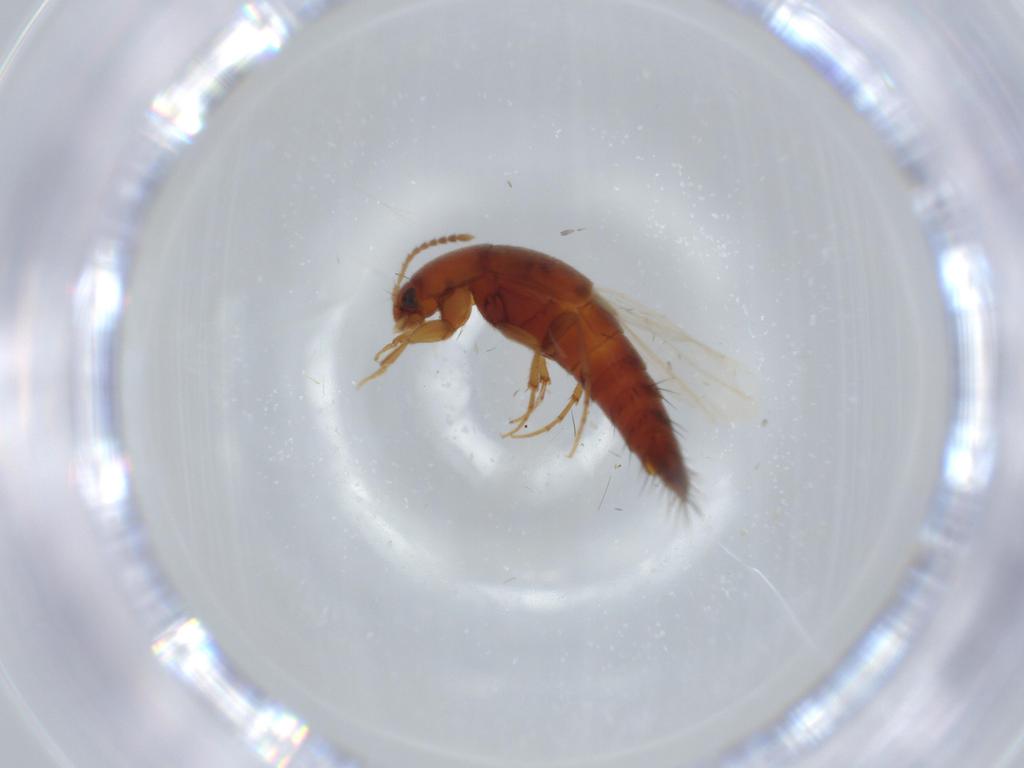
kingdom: Animalia
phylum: Arthropoda
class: Insecta
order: Coleoptera
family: Staphylinidae
